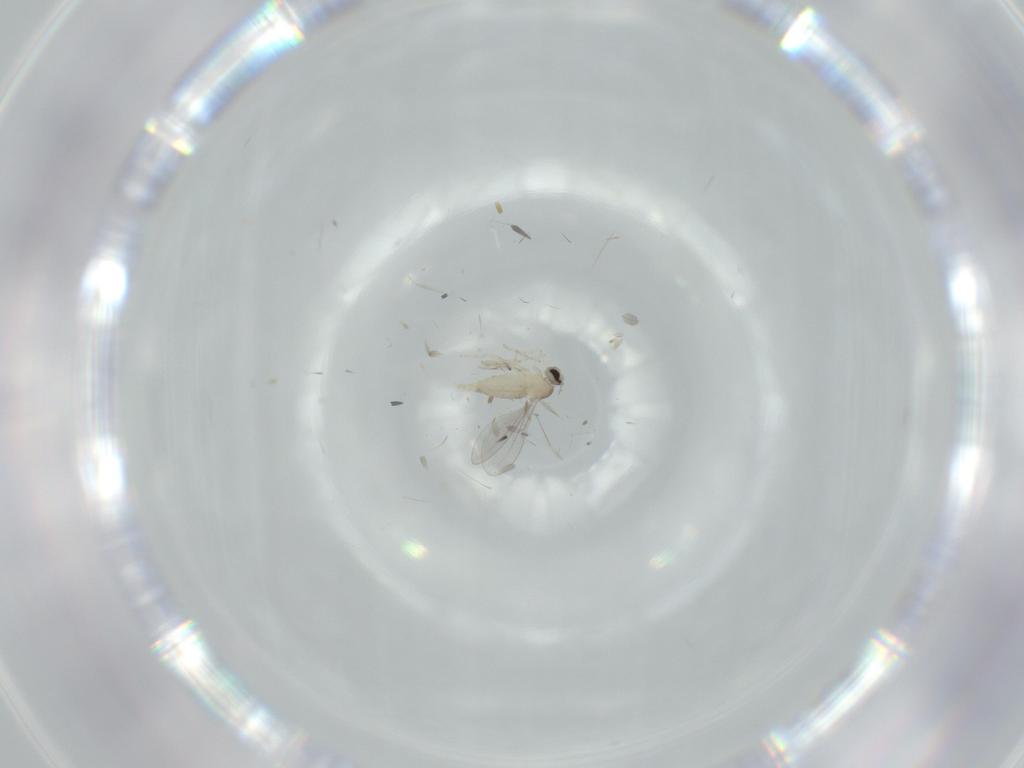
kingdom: Animalia
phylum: Arthropoda
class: Insecta
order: Diptera
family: Cecidomyiidae
